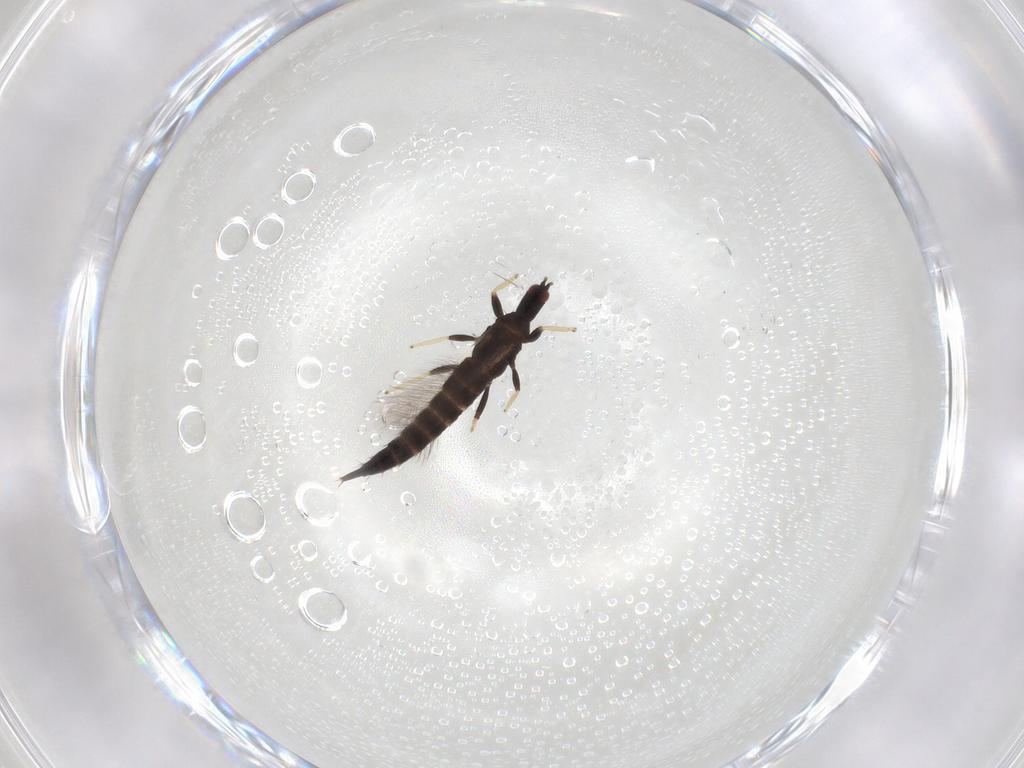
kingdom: Animalia
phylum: Arthropoda
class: Insecta
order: Thysanoptera
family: Phlaeothripidae
